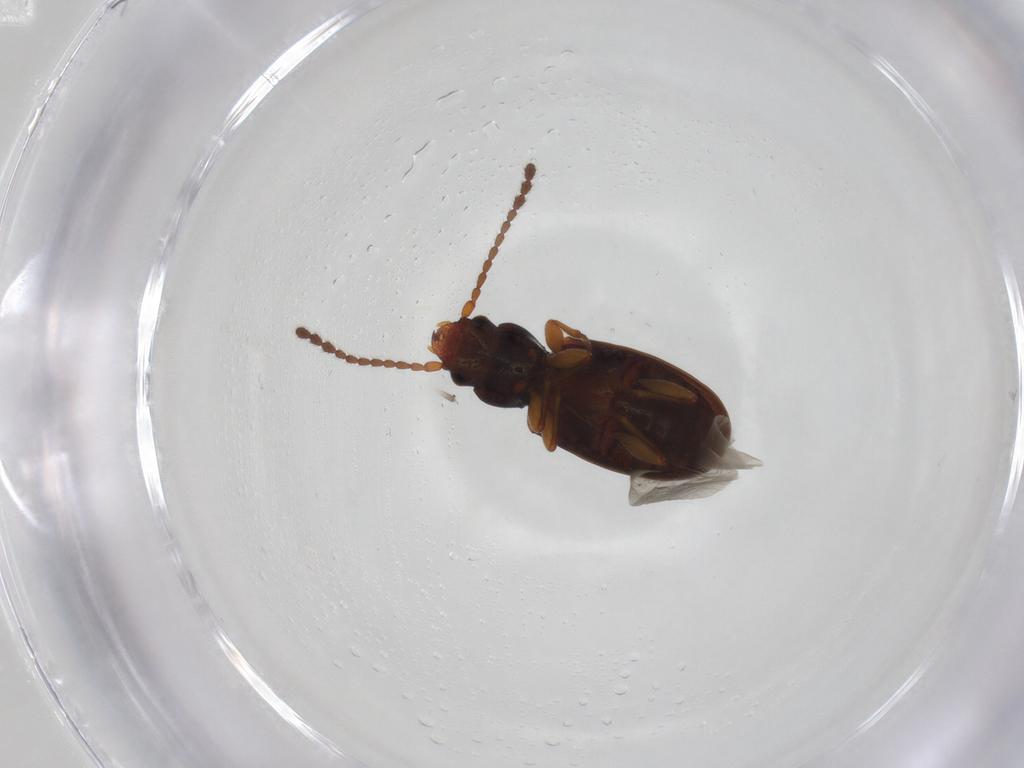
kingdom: Animalia
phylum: Arthropoda
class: Insecta
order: Coleoptera
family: Laemophloeidae
